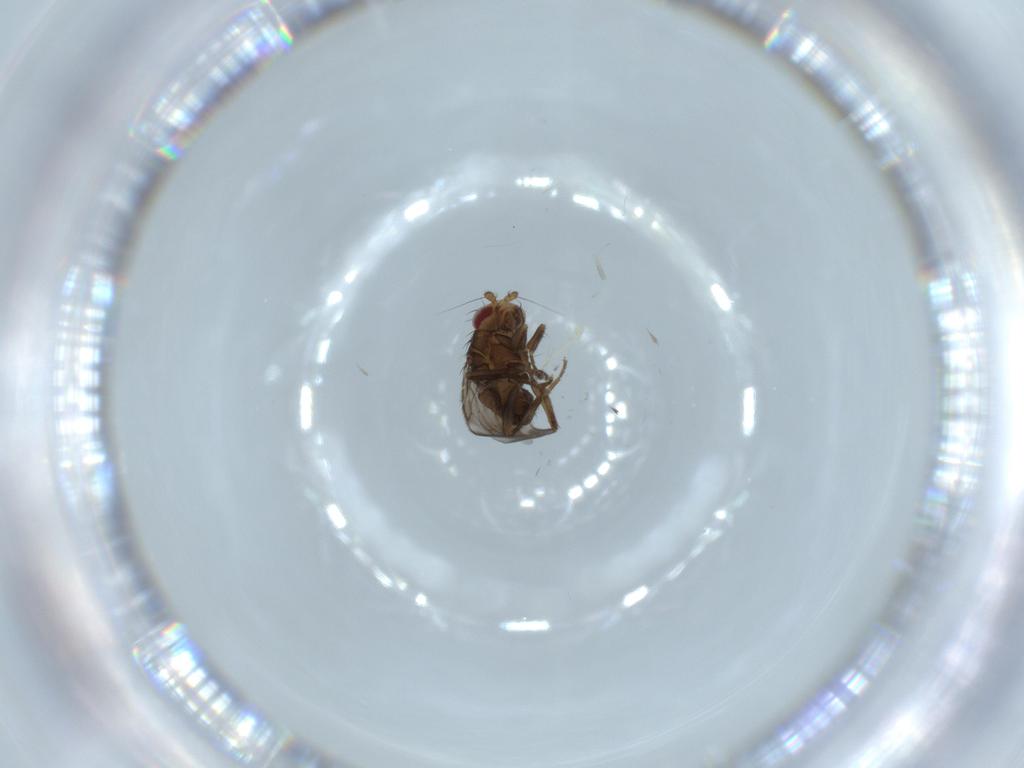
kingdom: Animalia
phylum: Arthropoda
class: Insecta
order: Diptera
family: Sphaeroceridae
